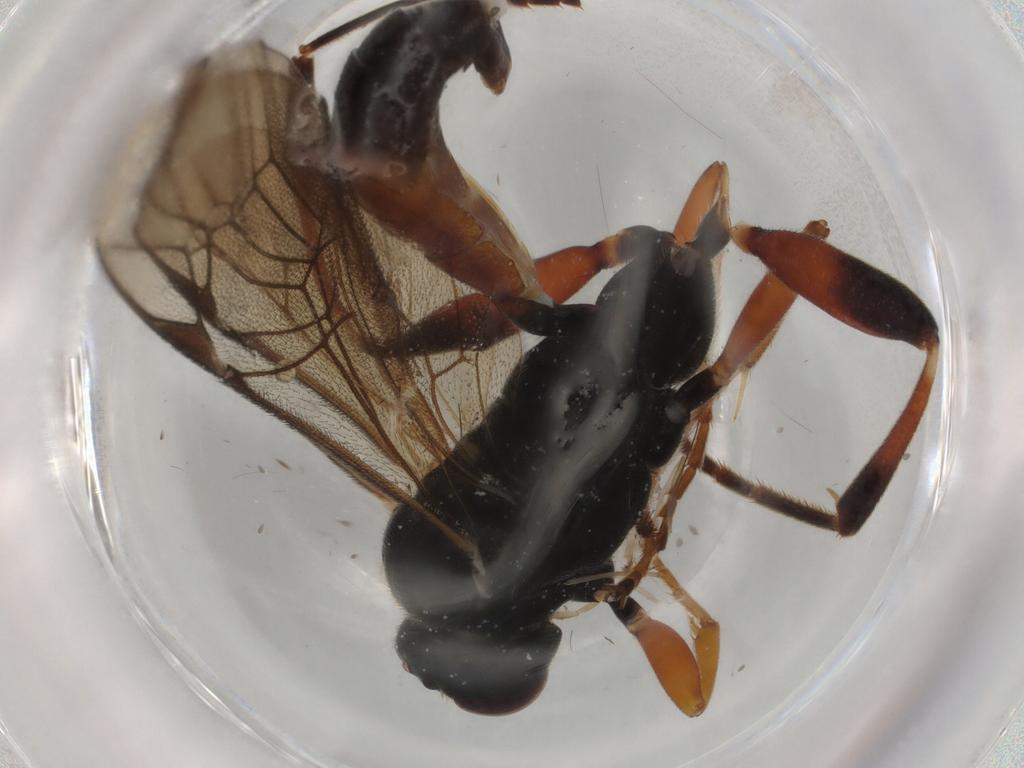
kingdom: Animalia
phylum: Arthropoda
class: Insecta
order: Hymenoptera
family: Ichneumonidae
